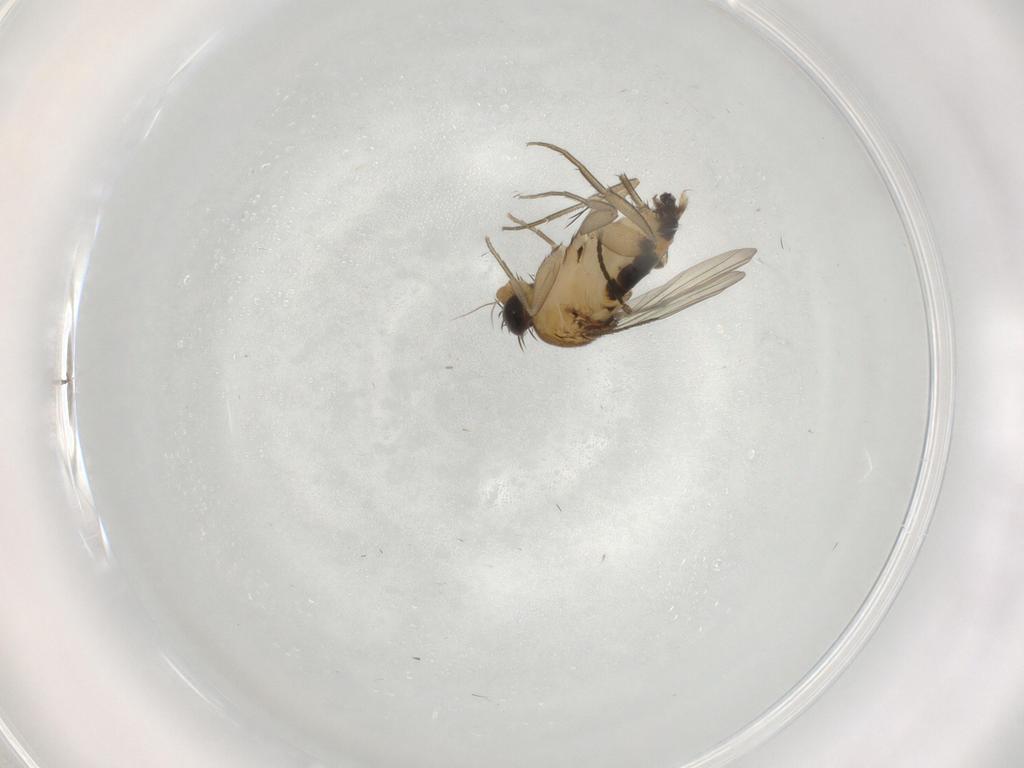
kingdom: Animalia
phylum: Arthropoda
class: Insecta
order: Diptera
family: Phoridae
